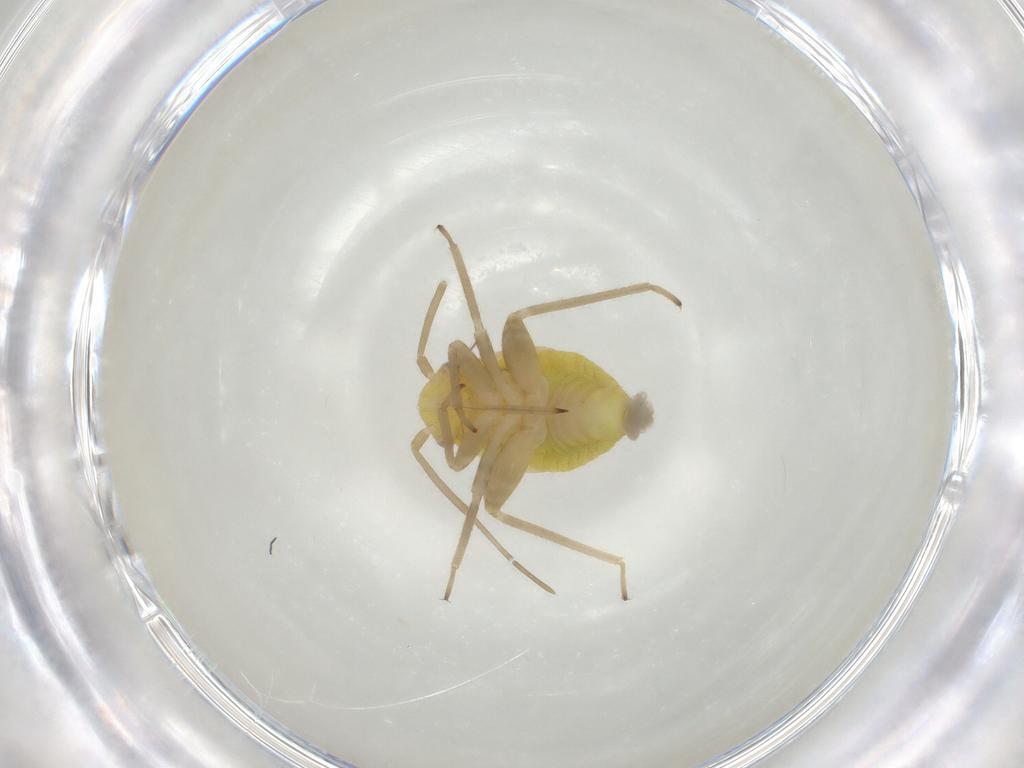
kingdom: Animalia
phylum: Arthropoda
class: Insecta
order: Hemiptera
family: Miridae
